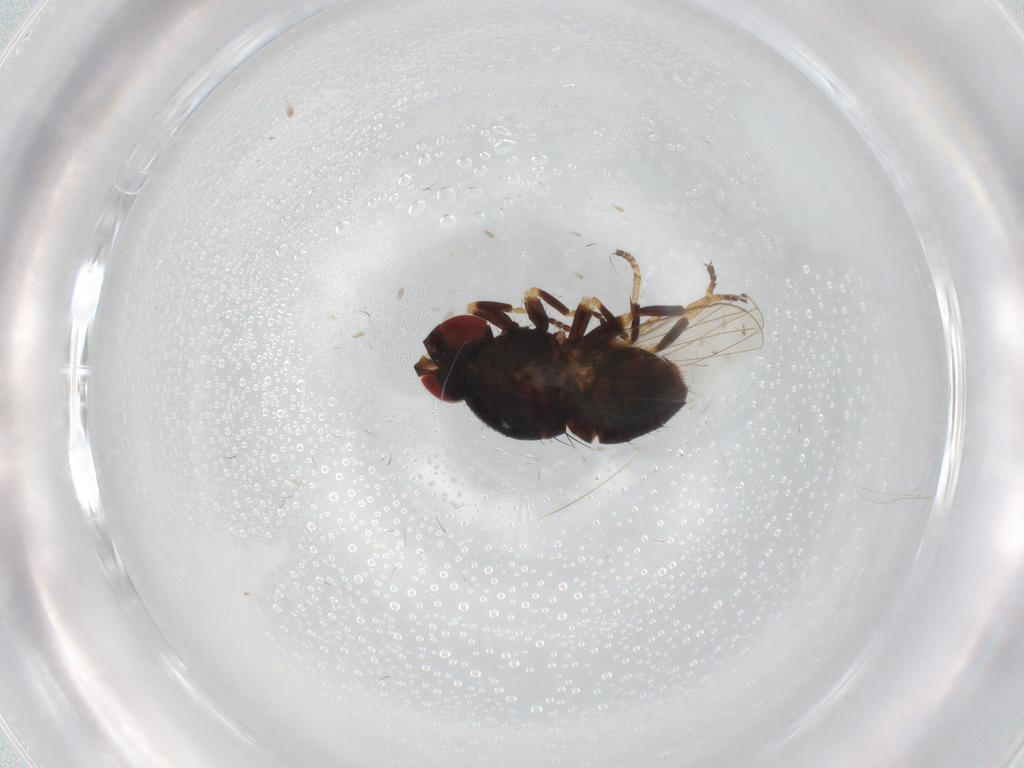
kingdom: Animalia
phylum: Arthropoda
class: Insecta
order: Diptera
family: Chamaemyiidae
